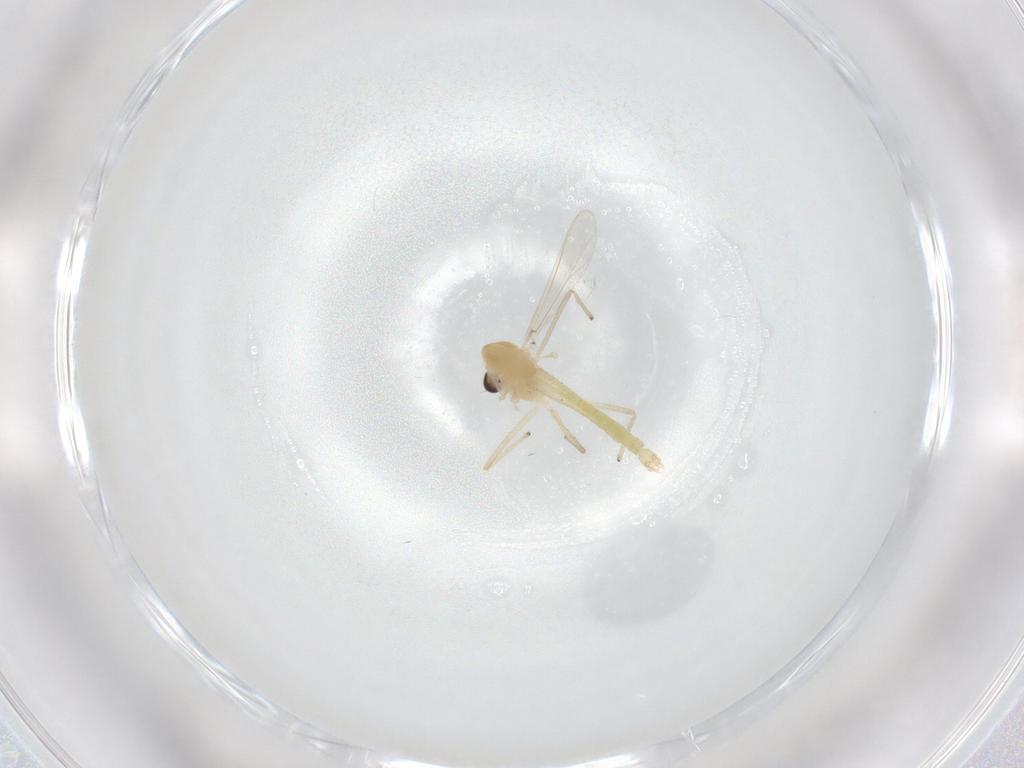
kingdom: Animalia
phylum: Arthropoda
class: Insecta
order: Diptera
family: Chironomidae
